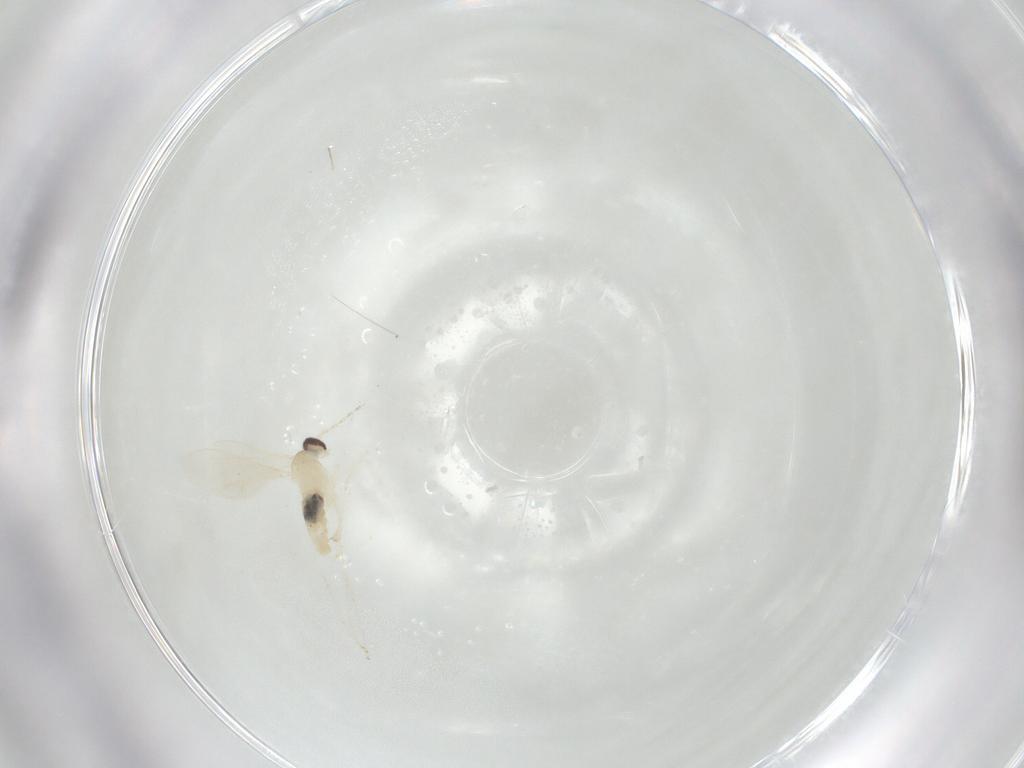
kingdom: Animalia
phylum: Arthropoda
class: Insecta
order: Diptera
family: Cecidomyiidae
